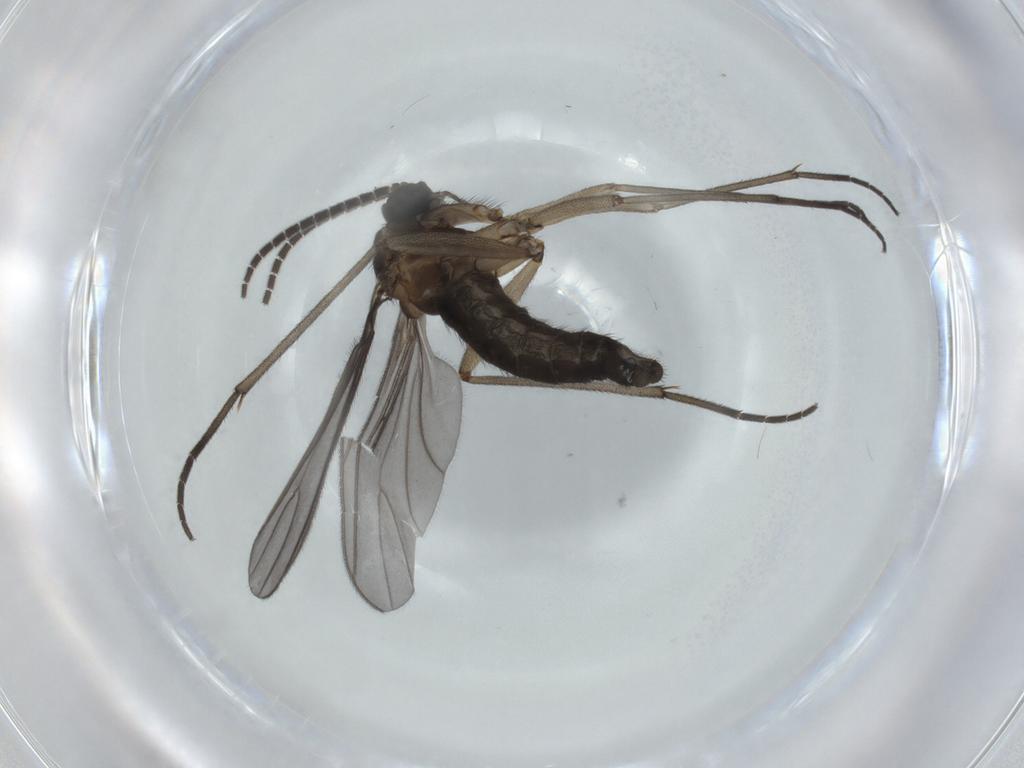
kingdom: Animalia
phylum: Arthropoda
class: Insecta
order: Diptera
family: Sciaridae
